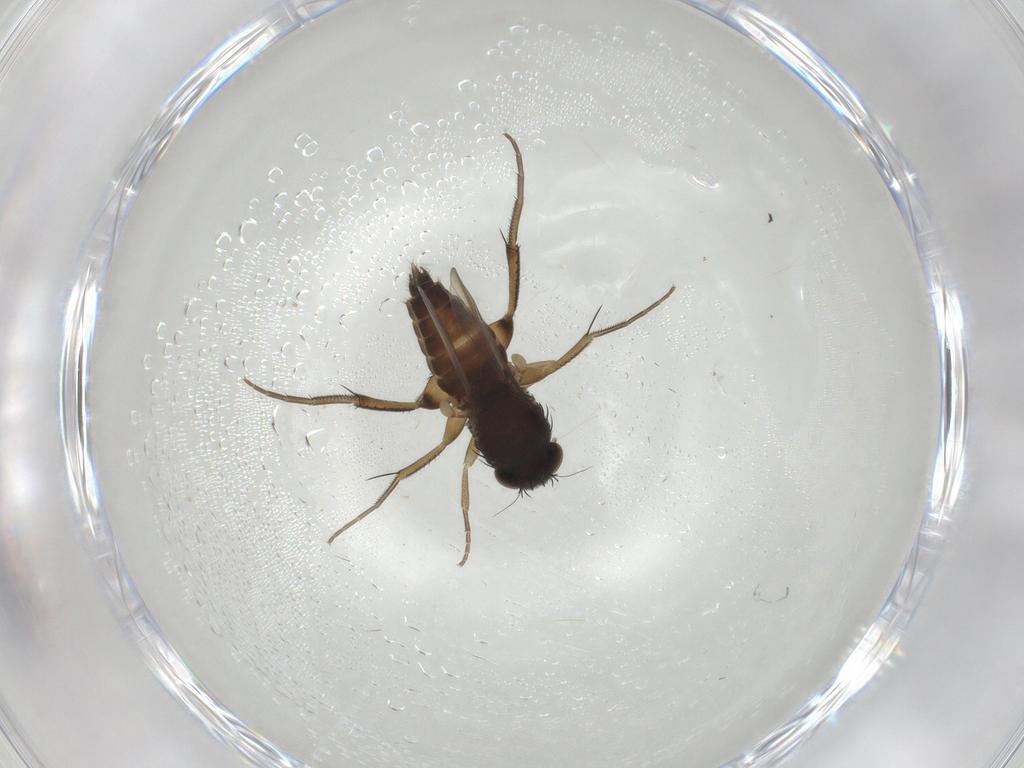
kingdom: Animalia
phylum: Arthropoda
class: Insecta
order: Diptera
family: Phoridae
